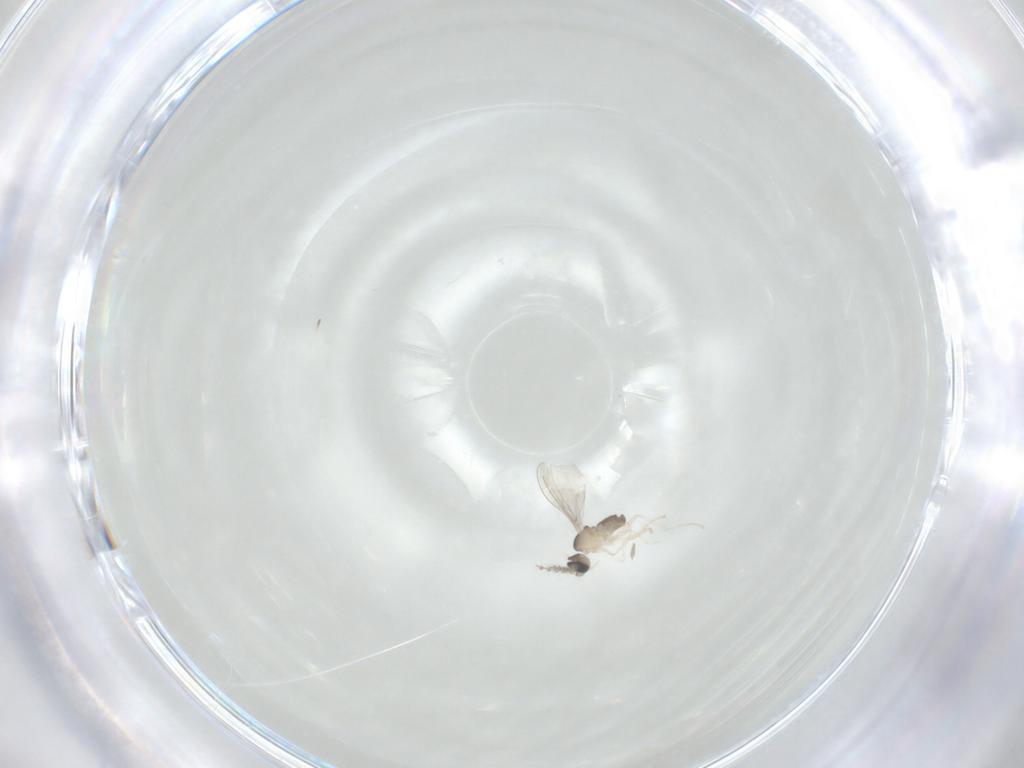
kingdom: Animalia
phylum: Arthropoda
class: Insecta
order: Diptera
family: Cecidomyiidae
